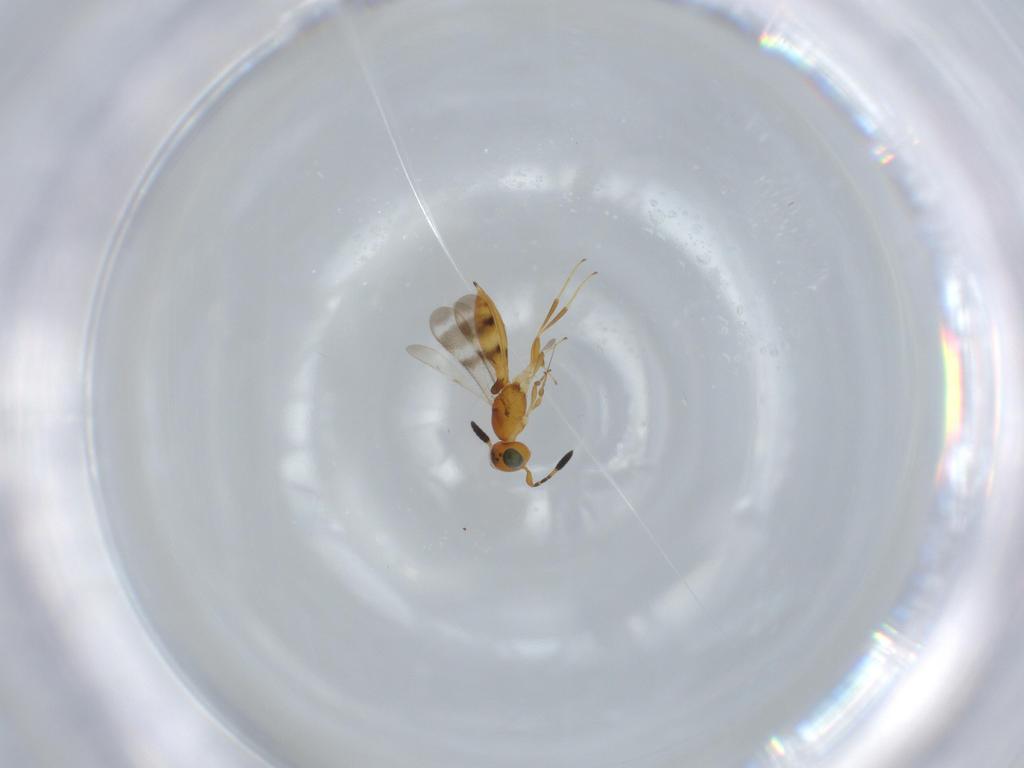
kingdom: Animalia
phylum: Arthropoda
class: Insecta
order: Hymenoptera
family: Scelionidae
